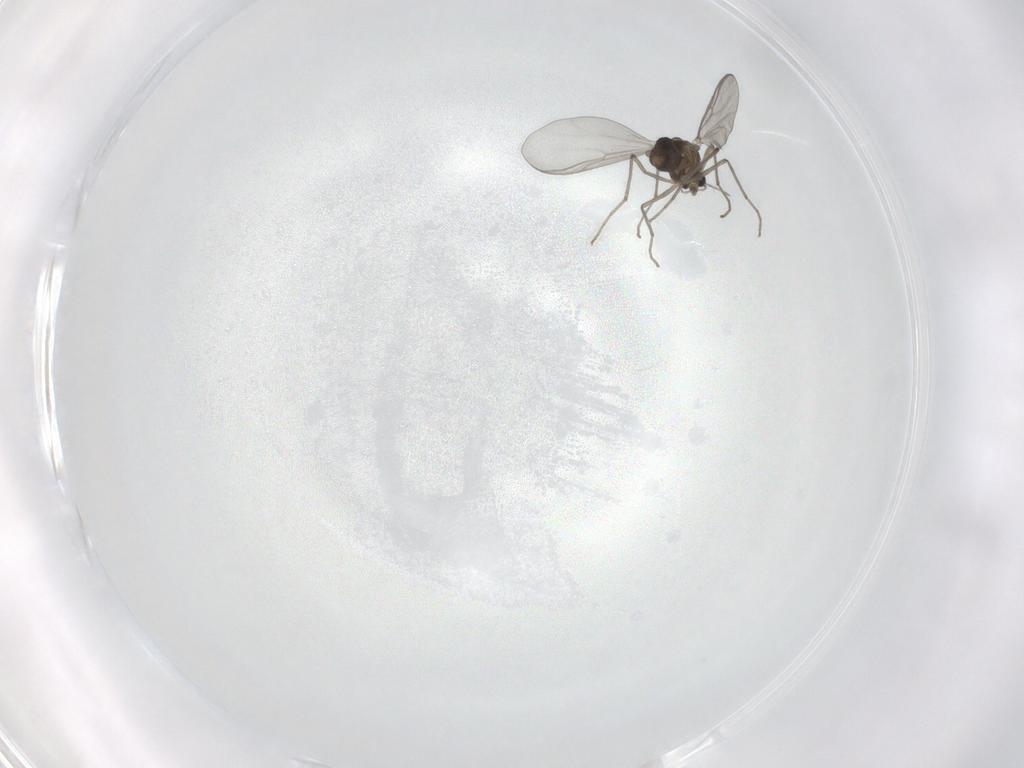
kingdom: Animalia
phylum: Arthropoda
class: Insecta
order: Diptera
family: Chironomidae
